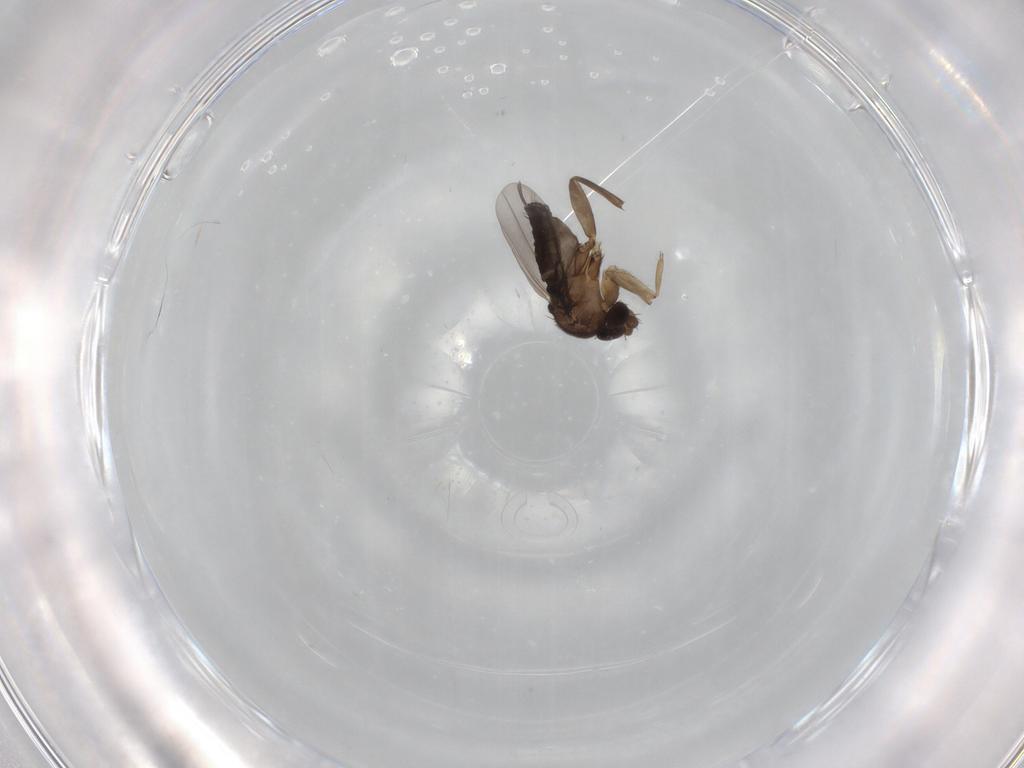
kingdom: Animalia
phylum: Arthropoda
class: Insecta
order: Diptera
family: Phoridae
